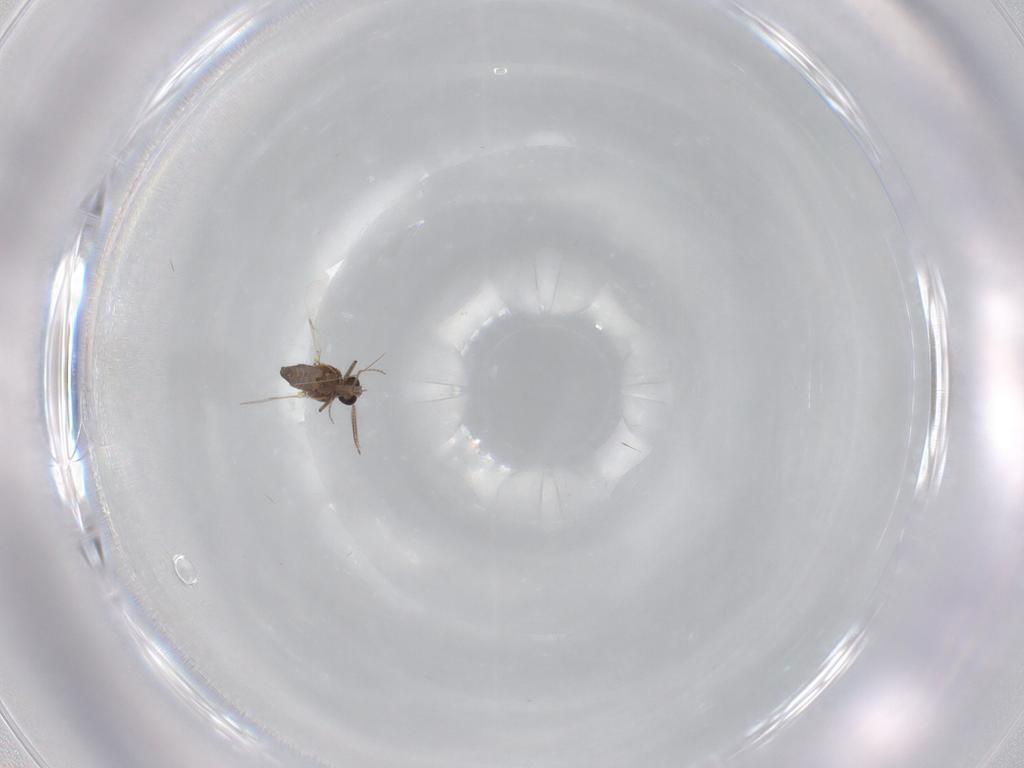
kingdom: Animalia
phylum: Arthropoda
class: Insecta
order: Diptera
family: Ceratopogonidae
